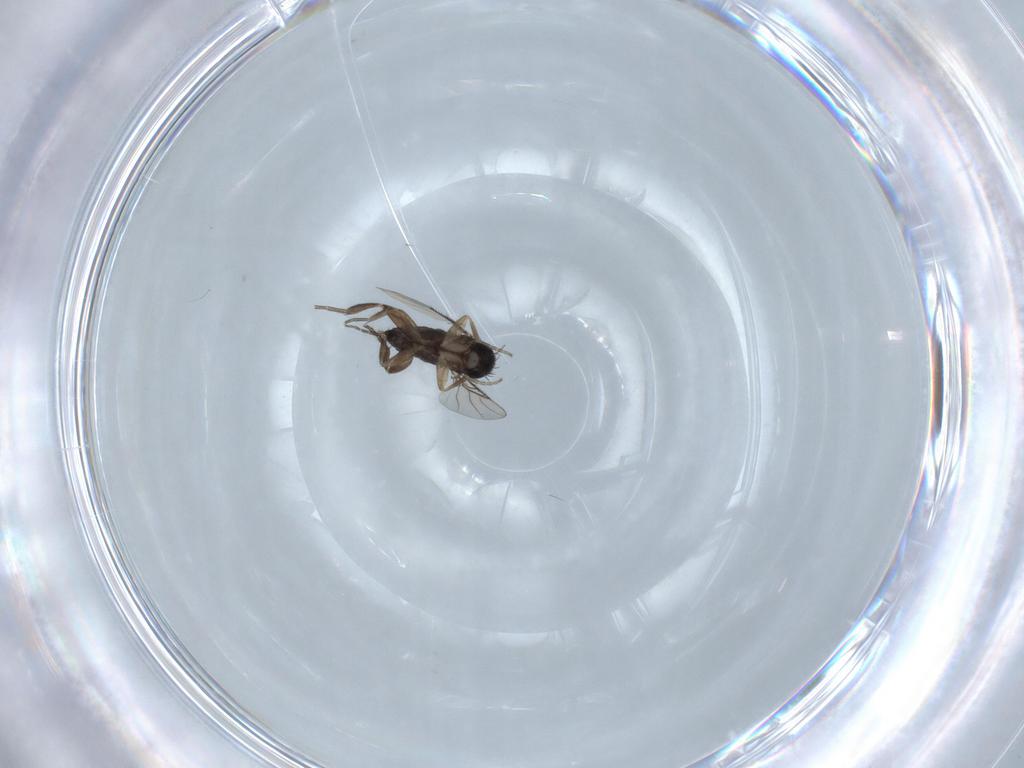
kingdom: Animalia
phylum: Arthropoda
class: Insecta
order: Diptera
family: Phoridae
